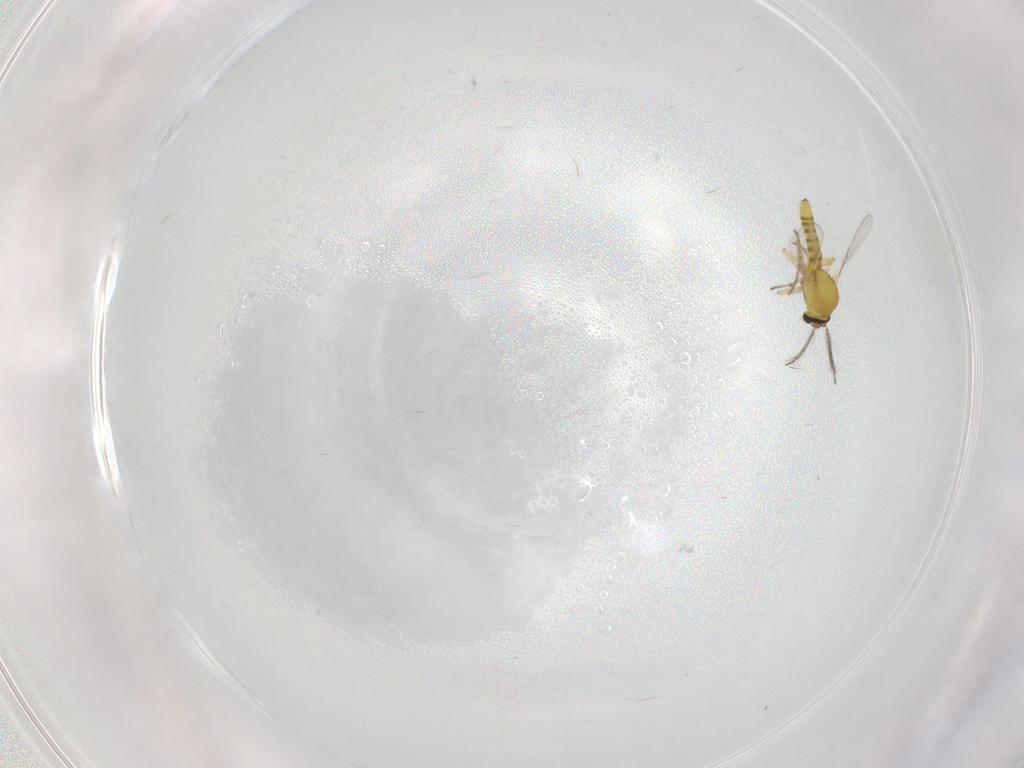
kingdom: Animalia
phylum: Arthropoda
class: Insecta
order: Diptera
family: Ceratopogonidae
